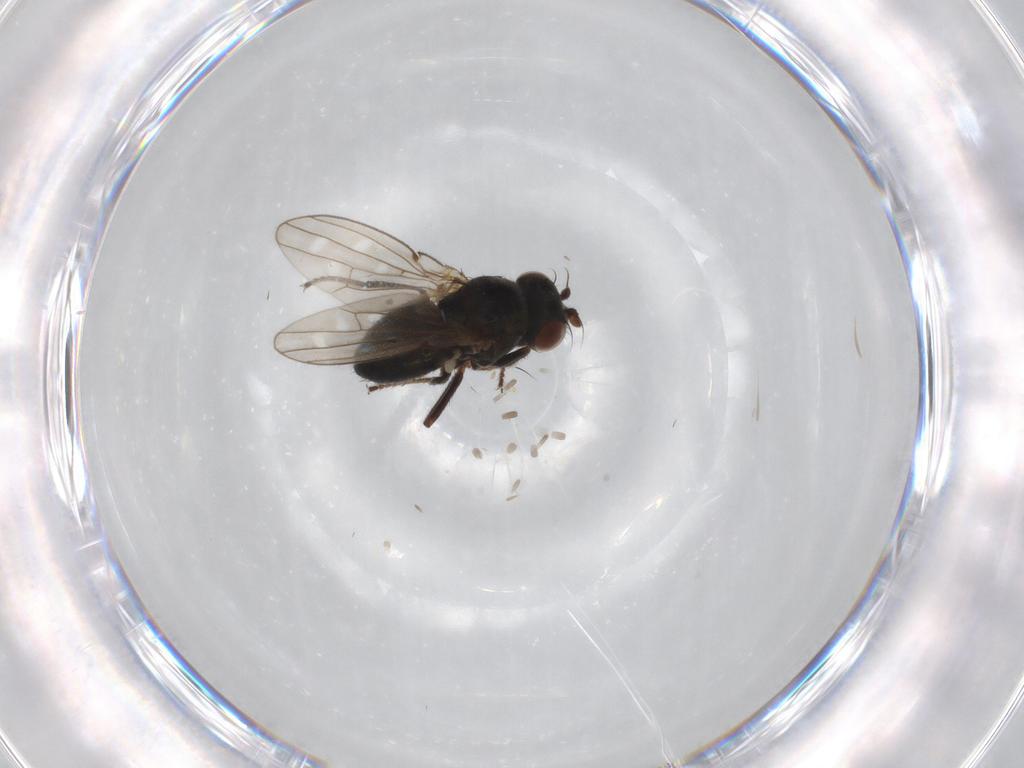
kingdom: Animalia
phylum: Arthropoda
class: Insecta
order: Diptera
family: Ephydridae
